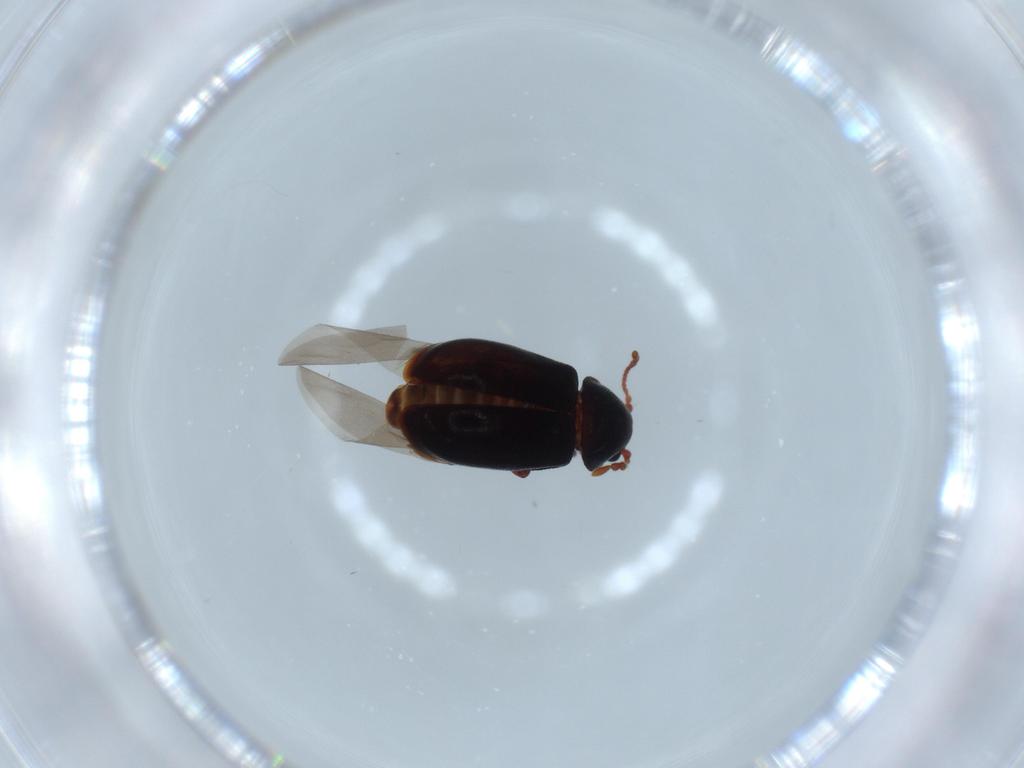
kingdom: Animalia
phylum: Arthropoda
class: Insecta
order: Coleoptera
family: Ptinidae
